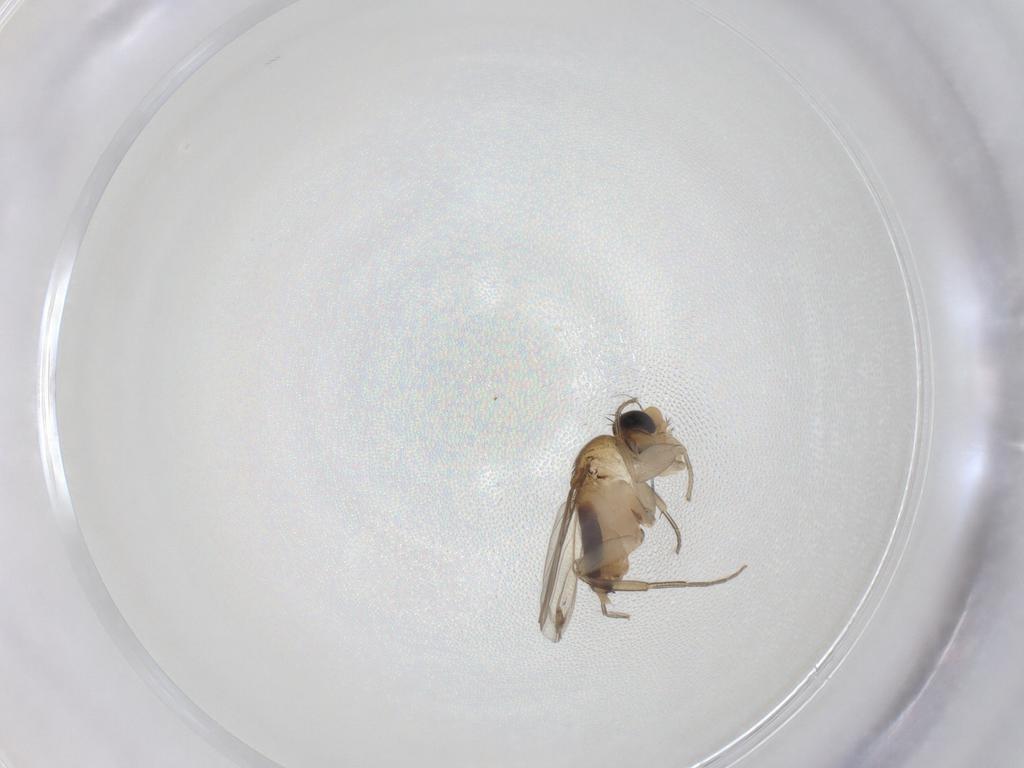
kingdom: Animalia
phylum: Arthropoda
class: Insecta
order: Diptera
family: Phoridae
